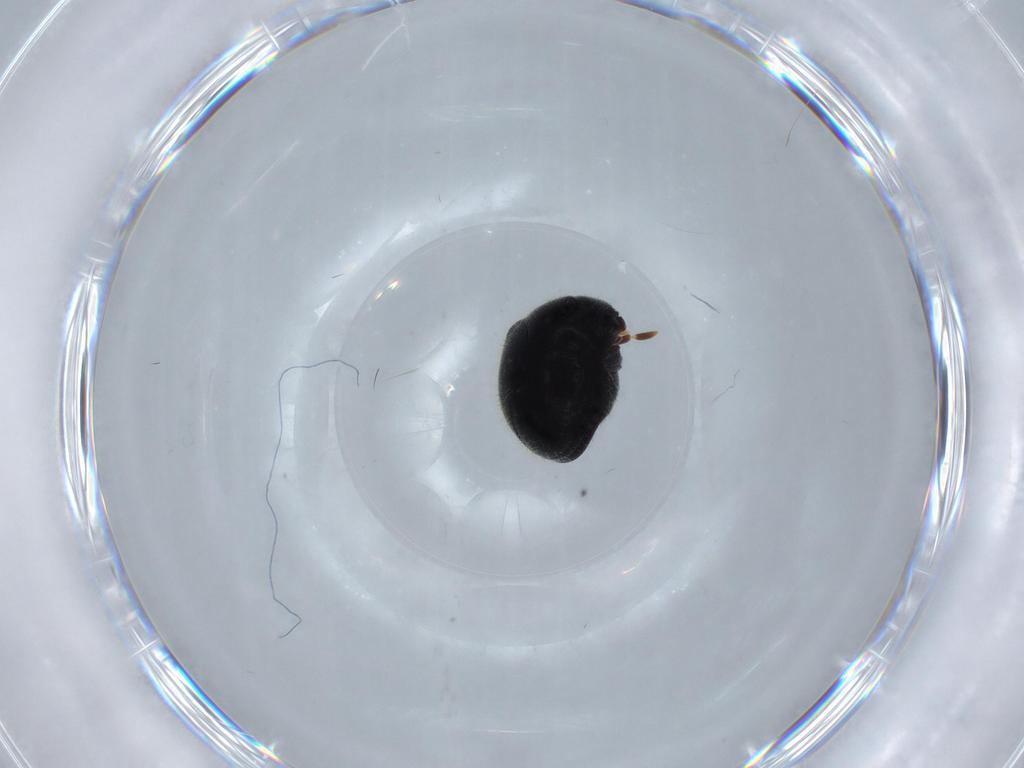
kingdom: Animalia
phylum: Arthropoda
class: Insecta
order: Coleoptera
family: Ptinidae
